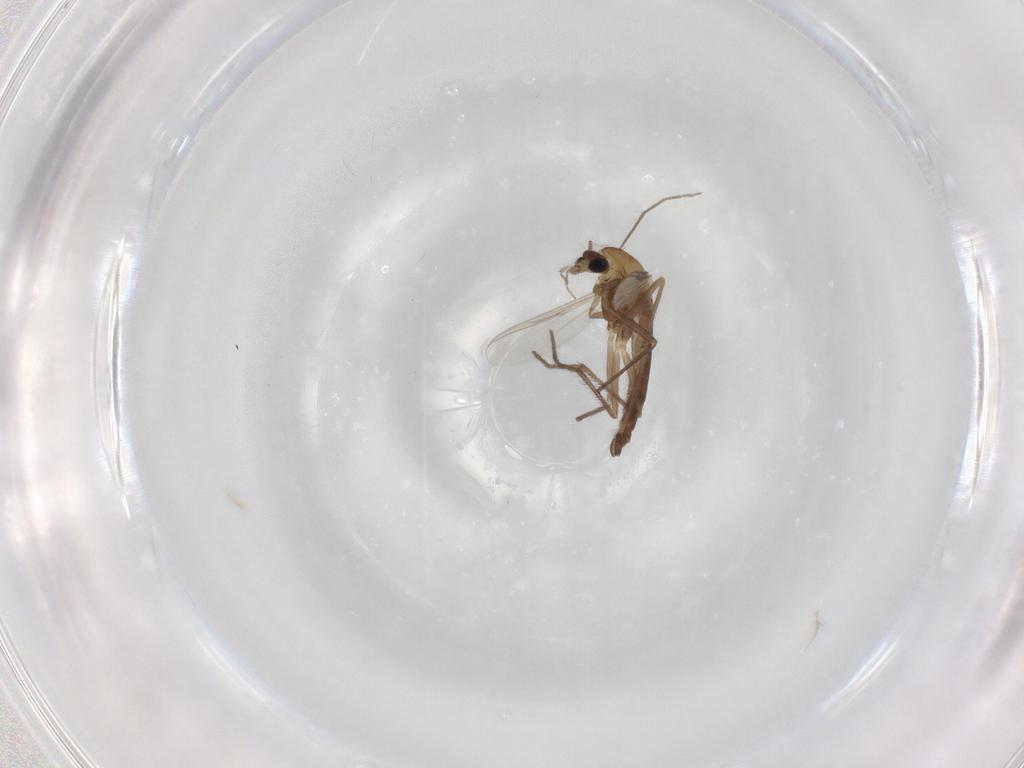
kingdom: Animalia
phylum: Arthropoda
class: Insecta
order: Diptera
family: Chironomidae
